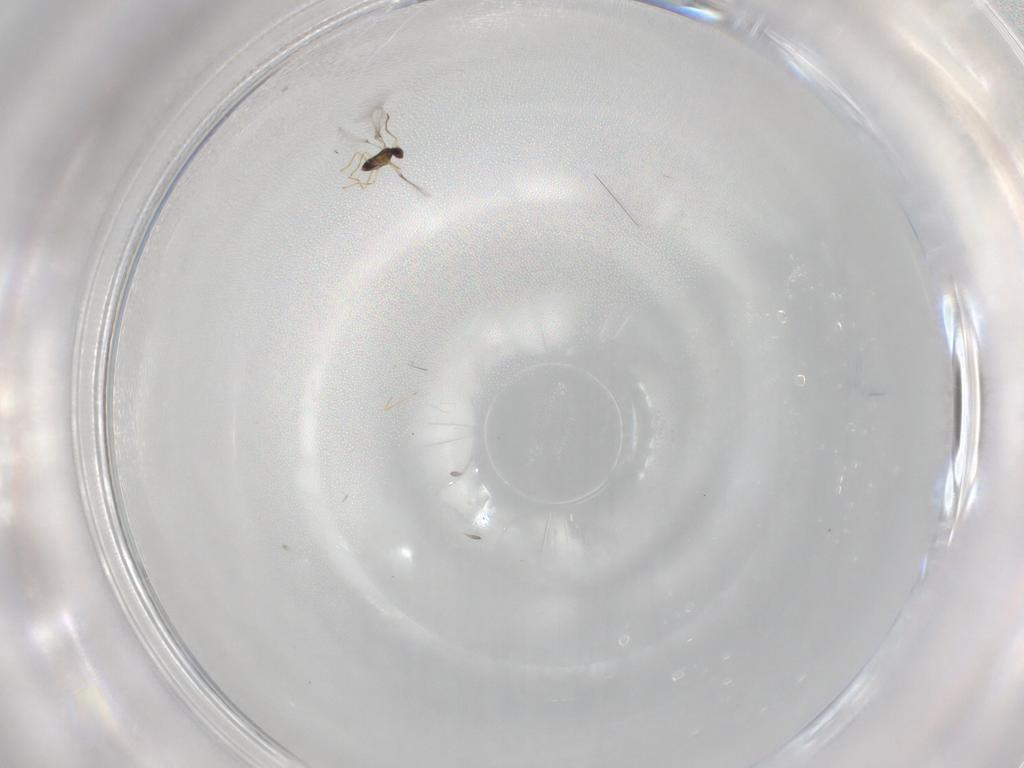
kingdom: Animalia
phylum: Arthropoda
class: Insecta
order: Hymenoptera
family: Mymaridae
